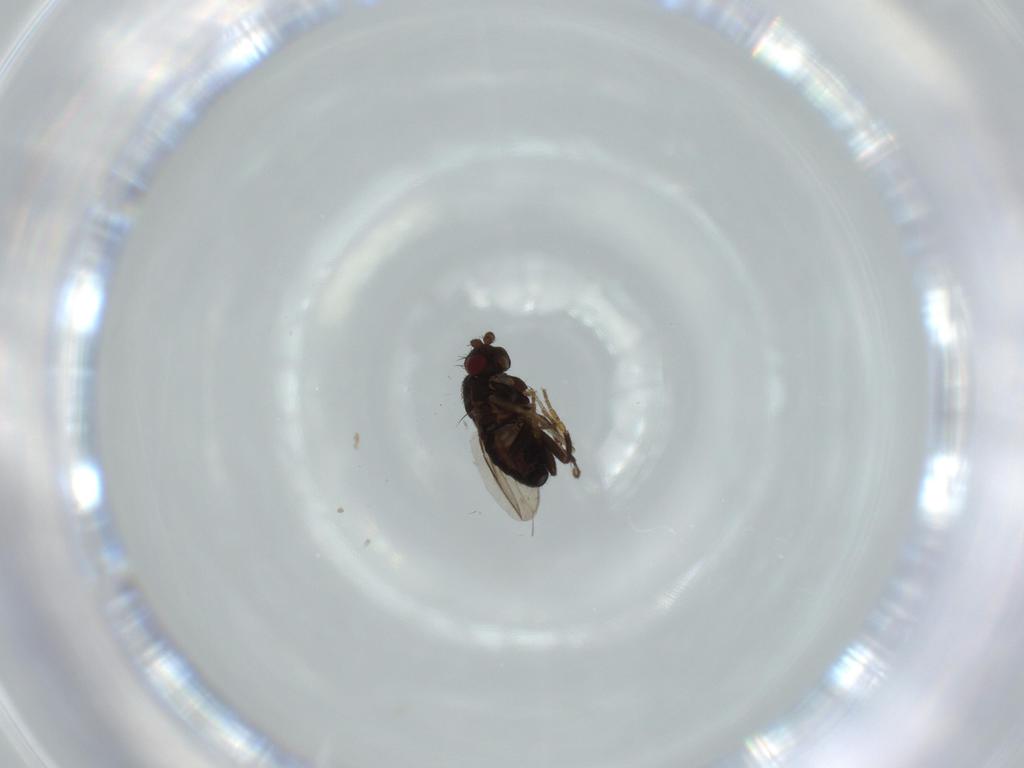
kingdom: Animalia
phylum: Arthropoda
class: Insecta
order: Diptera
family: Sphaeroceridae
